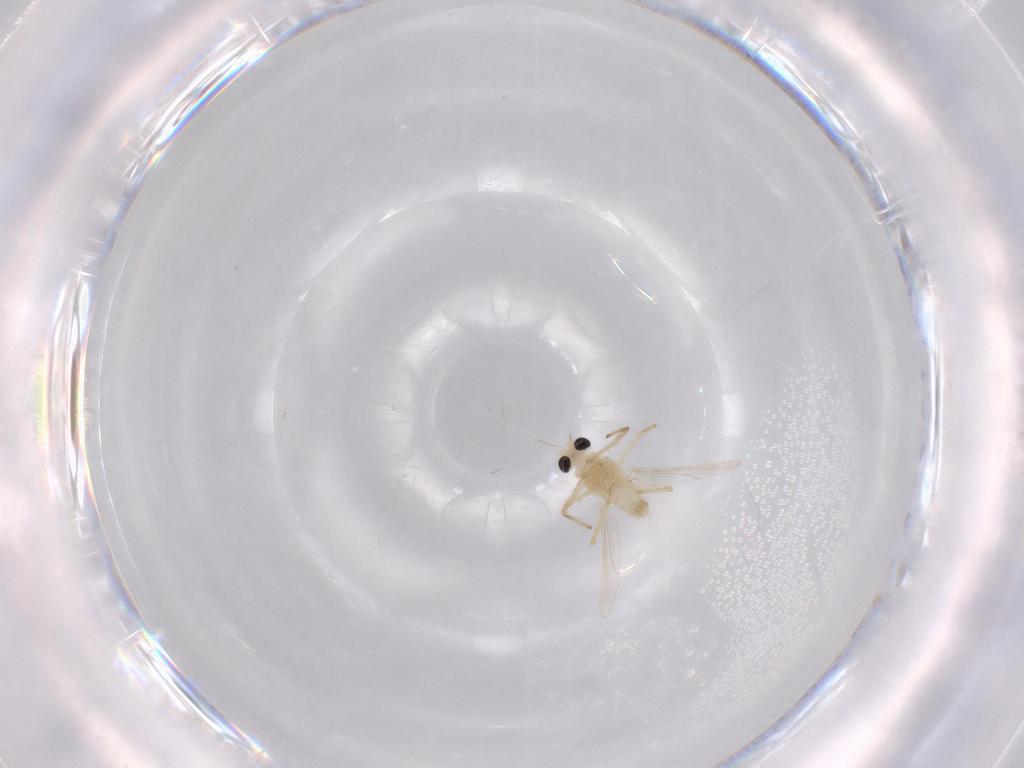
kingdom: Animalia
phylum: Arthropoda
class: Insecta
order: Diptera
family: Chironomidae
